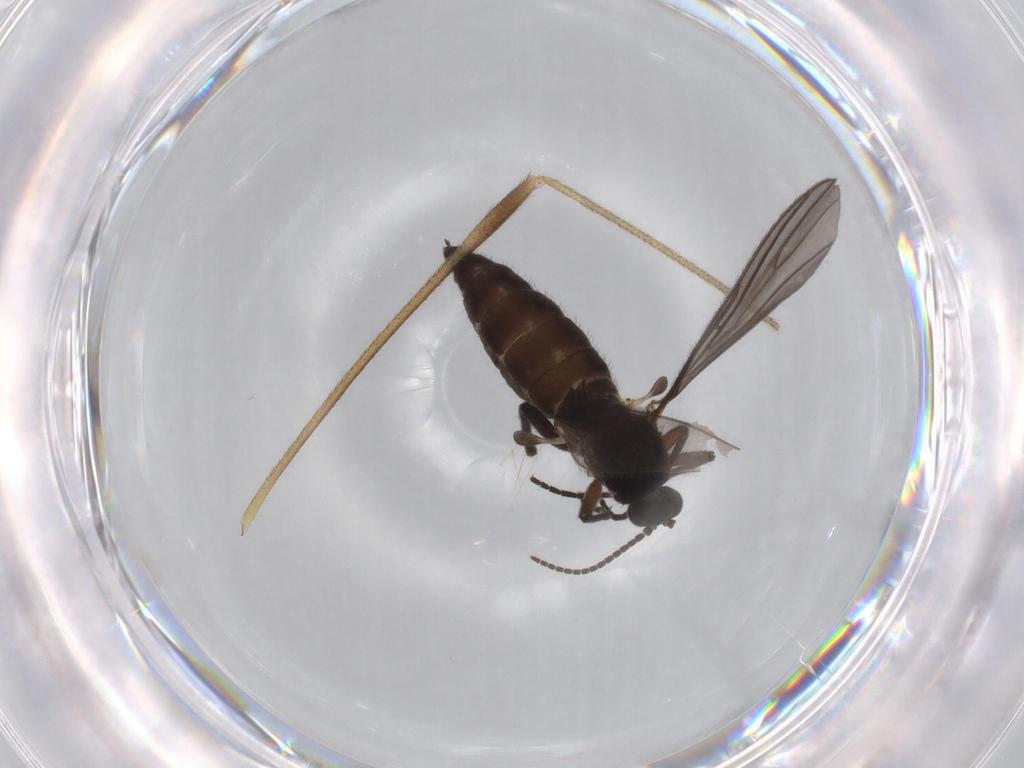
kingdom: Animalia
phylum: Arthropoda
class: Insecta
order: Diptera
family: Sciaridae
